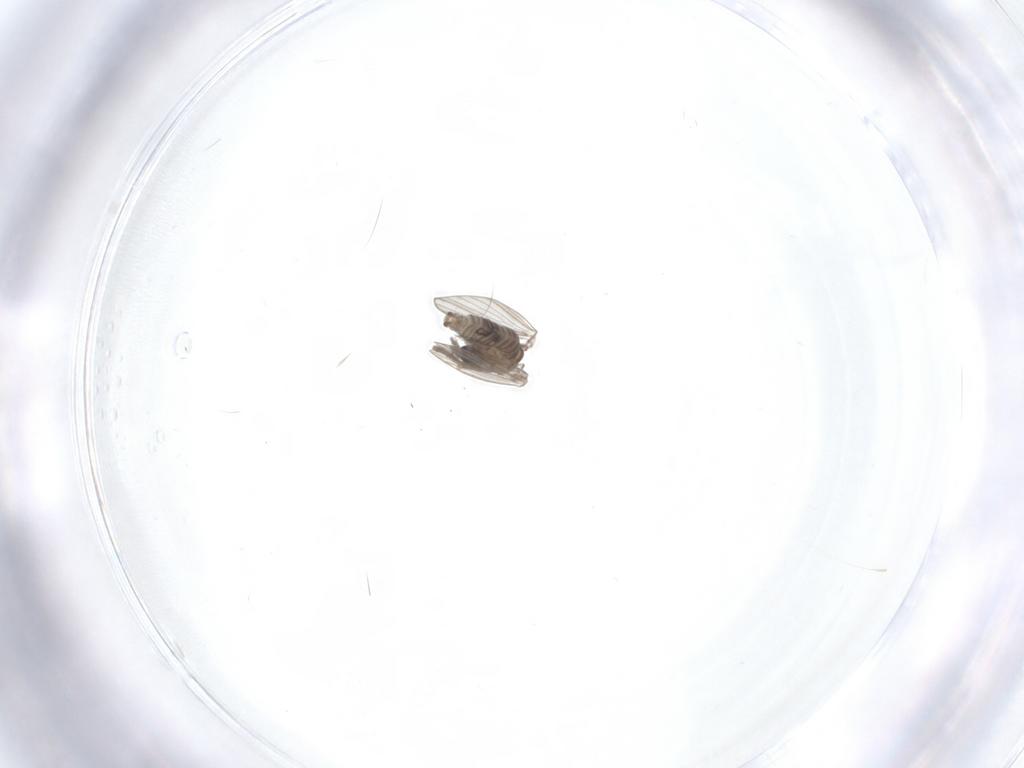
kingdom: Animalia
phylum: Arthropoda
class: Insecta
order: Diptera
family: Psychodidae
